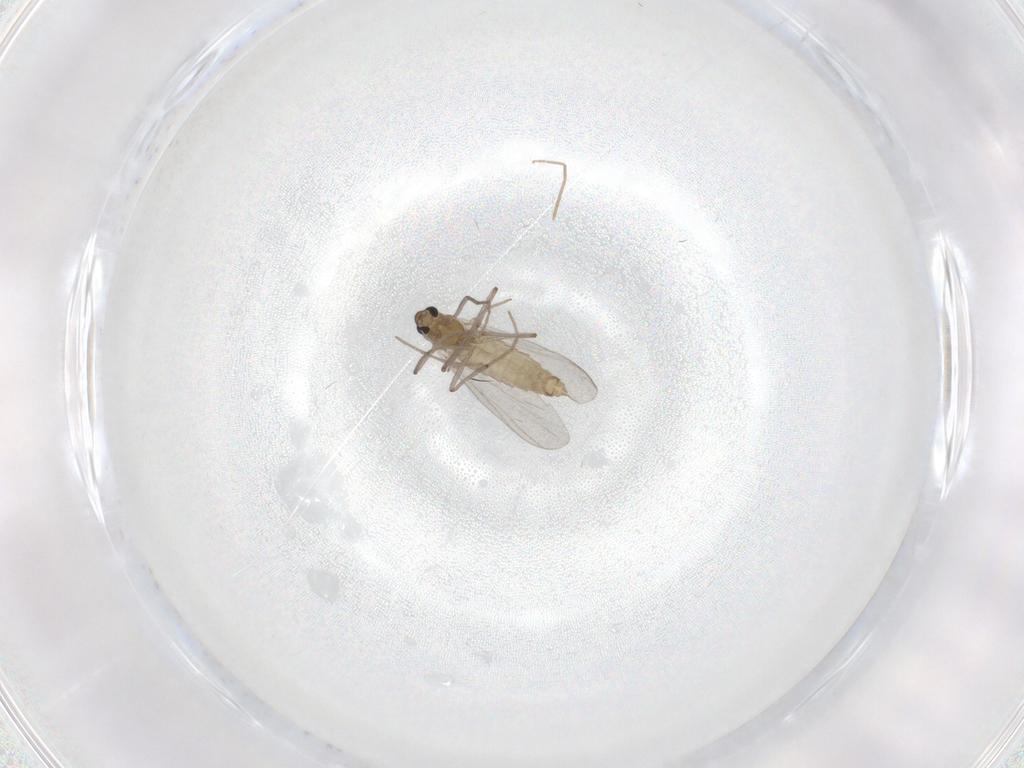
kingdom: Animalia
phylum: Arthropoda
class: Insecta
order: Diptera
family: Chironomidae
